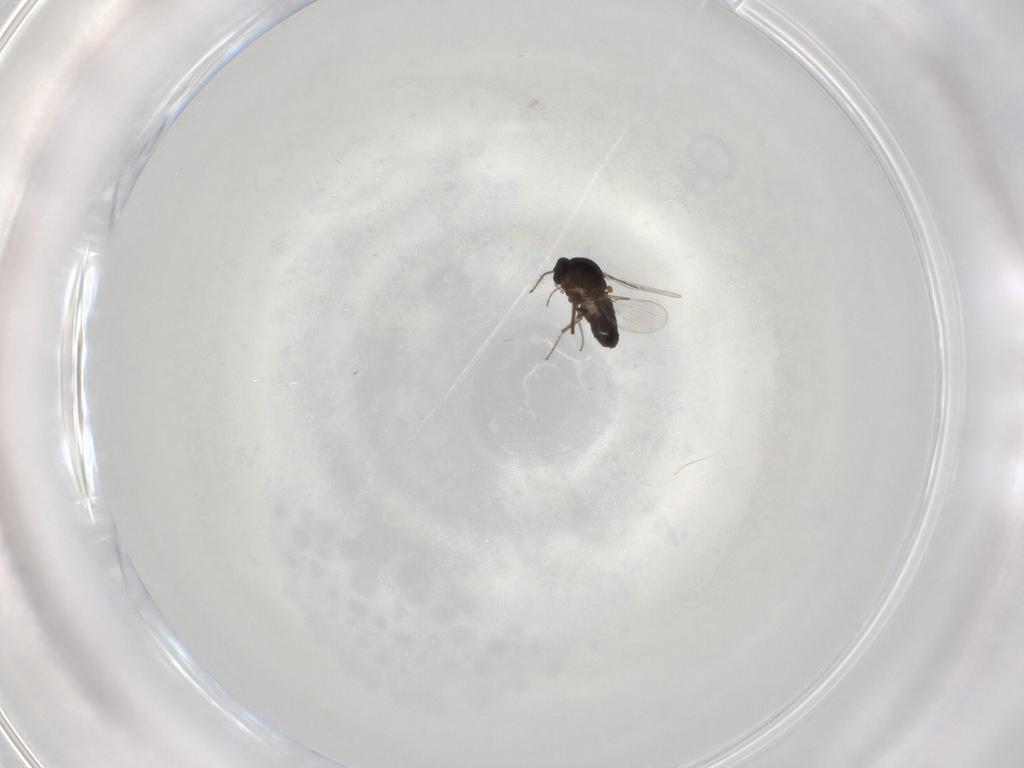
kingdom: Animalia
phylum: Arthropoda
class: Insecta
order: Diptera
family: Ceratopogonidae
